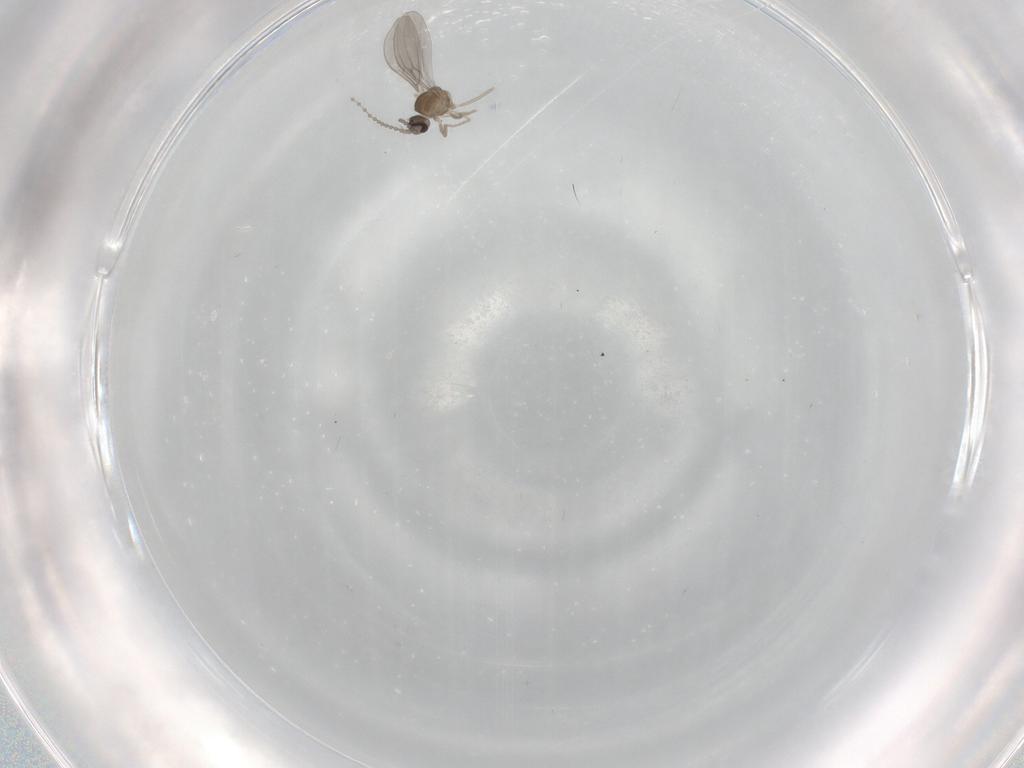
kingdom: Animalia
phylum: Arthropoda
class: Insecta
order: Diptera
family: Cecidomyiidae
